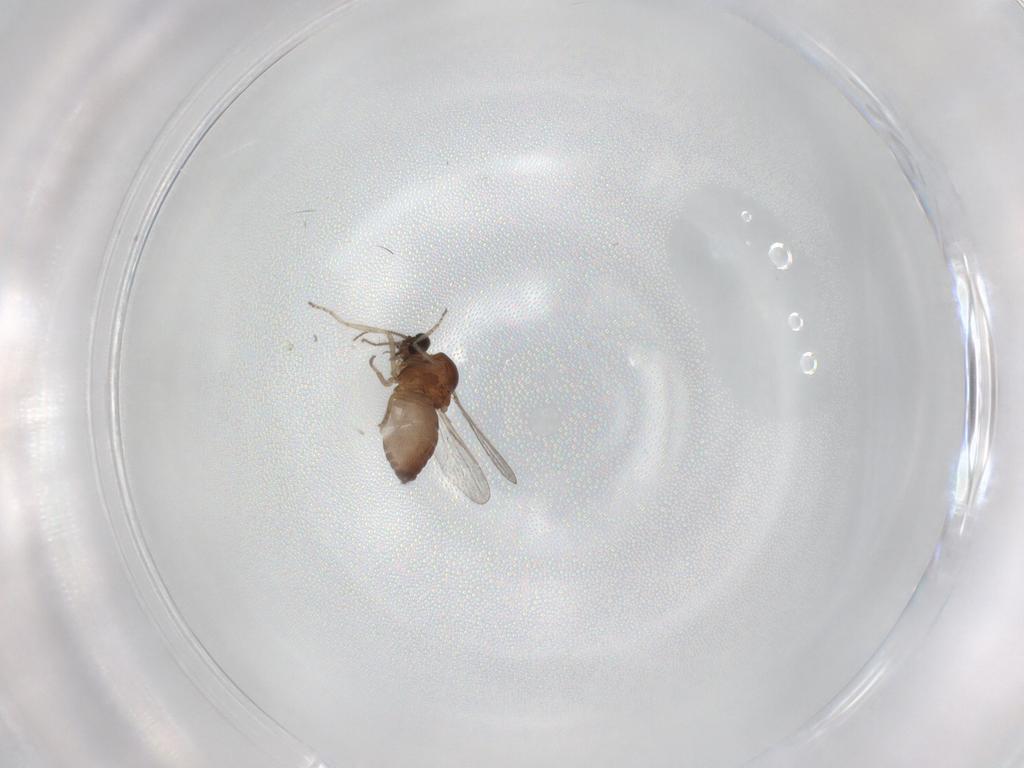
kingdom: Animalia
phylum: Arthropoda
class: Insecta
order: Diptera
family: Ceratopogonidae
